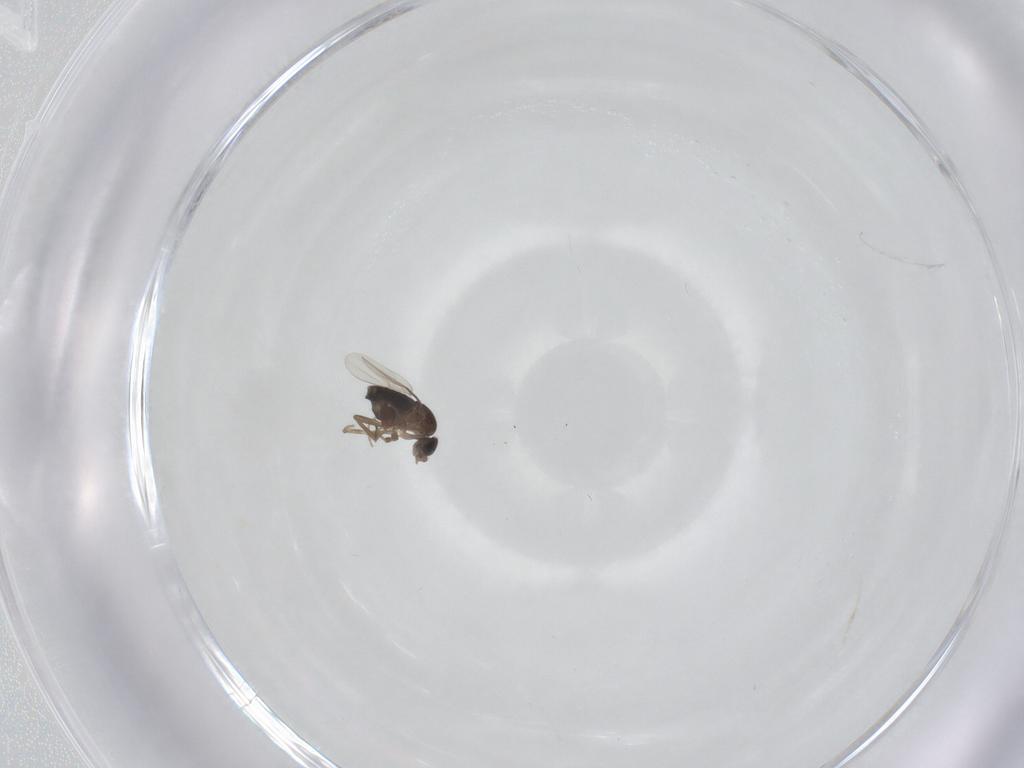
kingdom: Animalia
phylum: Arthropoda
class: Insecta
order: Diptera
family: Phoridae
